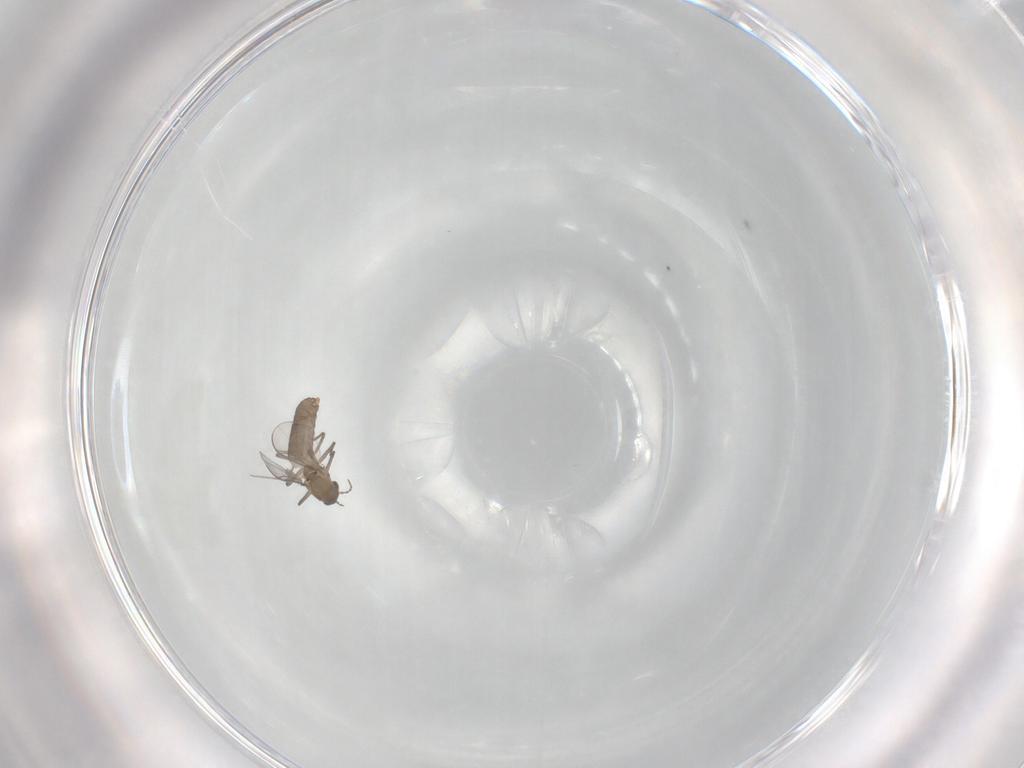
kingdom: Animalia
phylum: Arthropoda
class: Insecta
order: Diptera
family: Chironomidae
